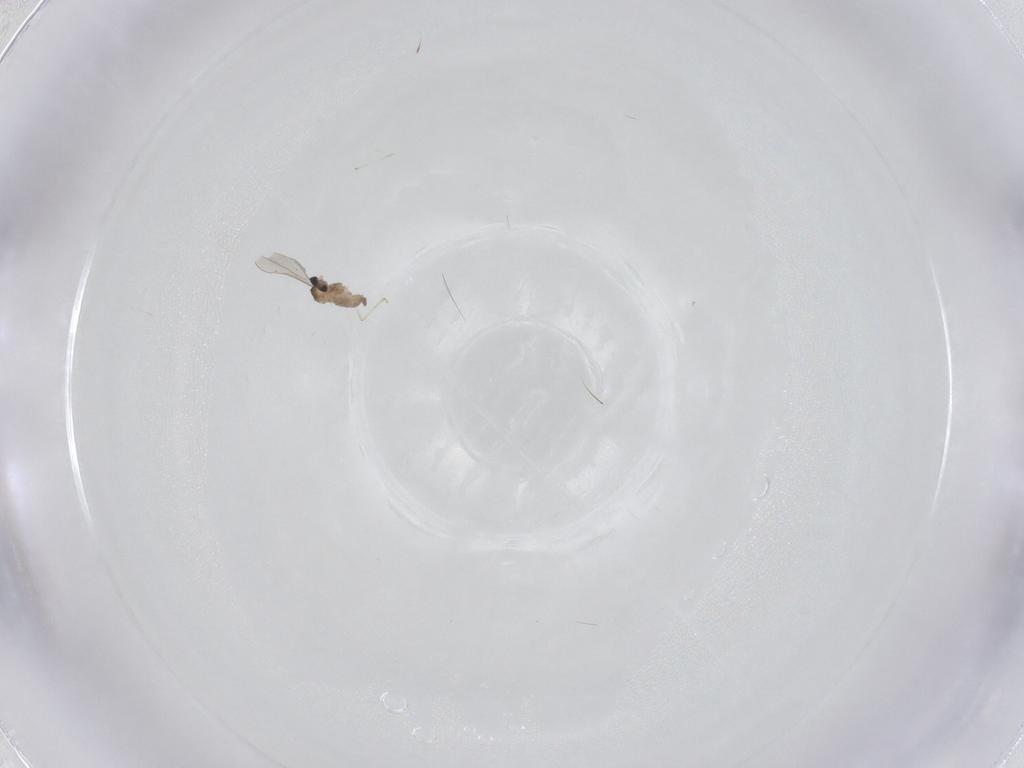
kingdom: Animalia
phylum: Arthropoda
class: Insecta
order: Diptera
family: Cecidomyiidae
